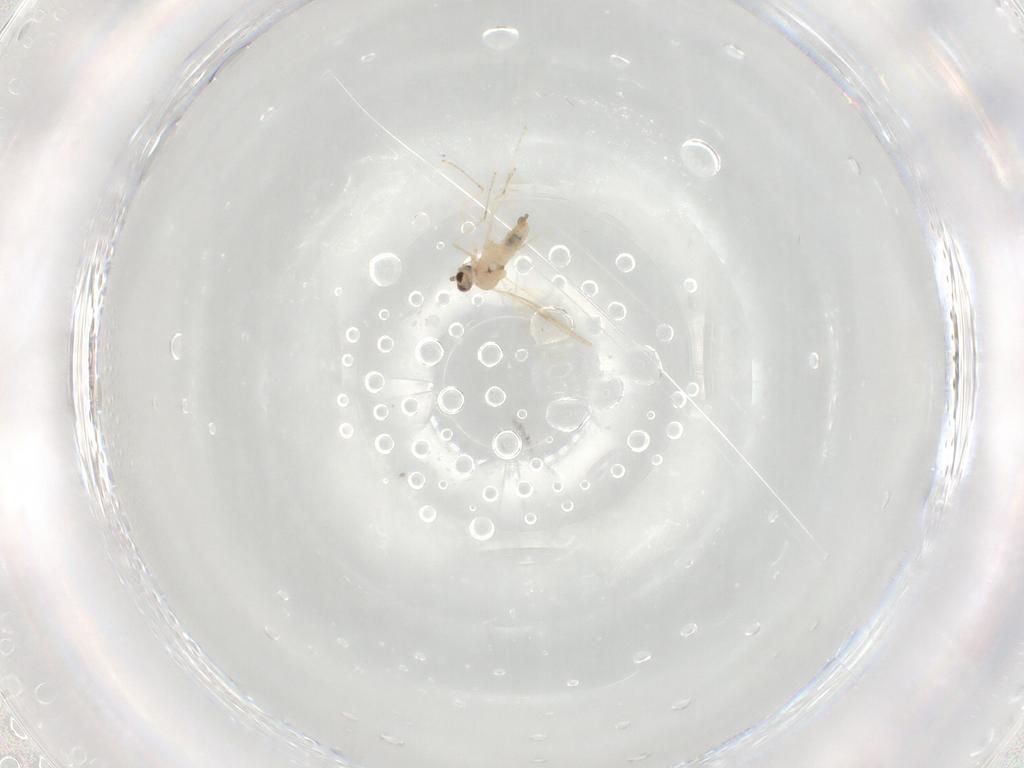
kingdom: Animalia
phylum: Arthropoda
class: Insecta
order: Diptera
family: Cecidomyiidae
